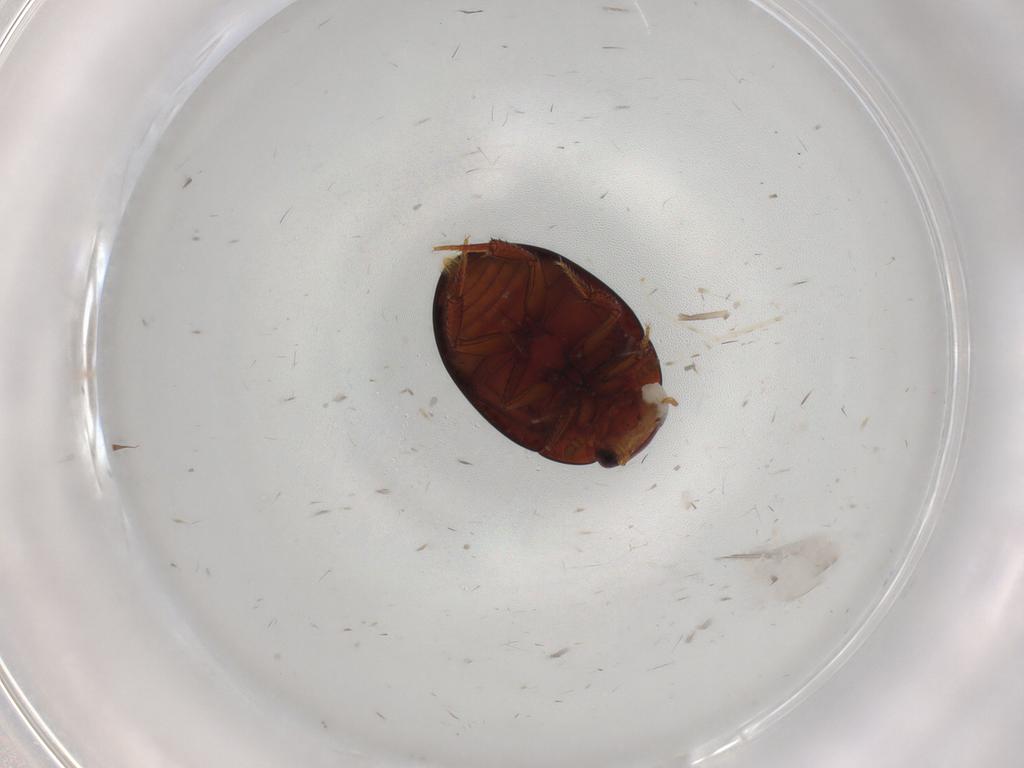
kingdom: Animalia
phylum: Arthropoda
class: Insecta
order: Coleoptera
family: Hydrophilidae
